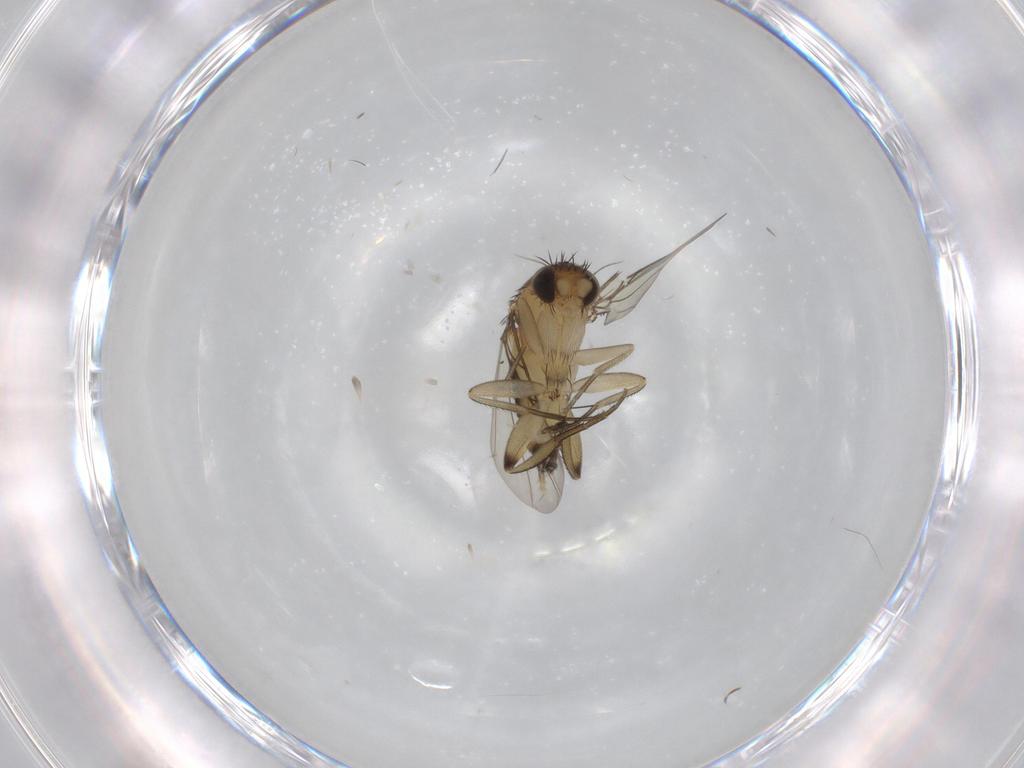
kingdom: Animalia
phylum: Arthropoda
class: Insecta
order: Diptera
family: Phoridae
